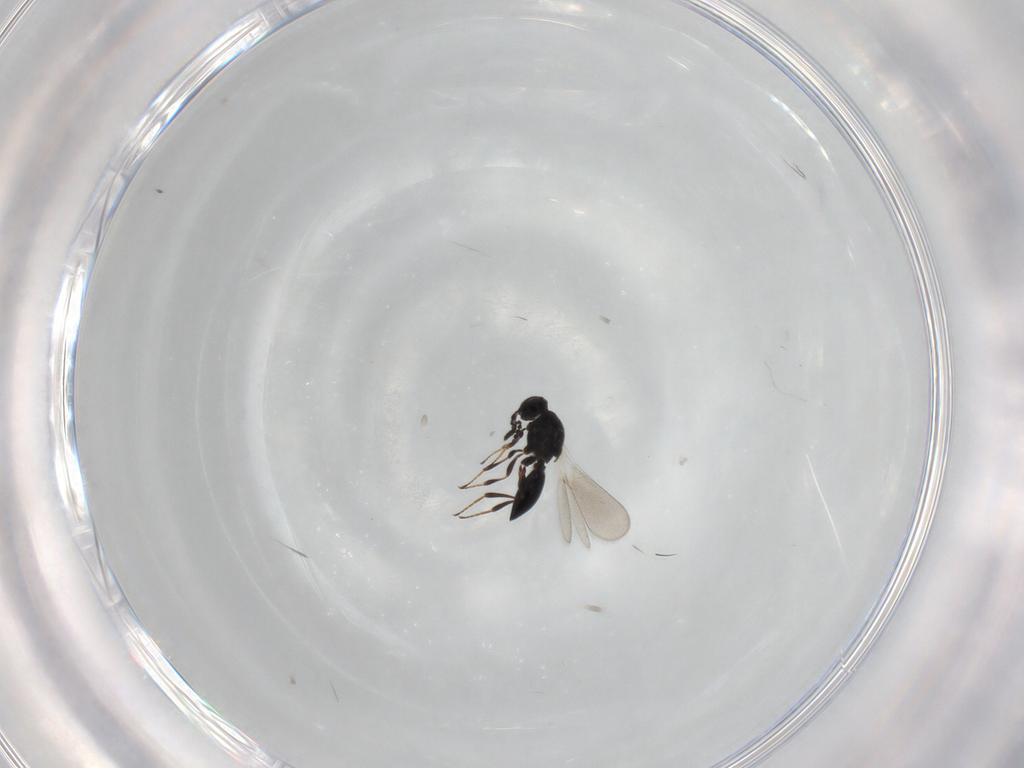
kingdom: Animalia
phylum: Arthropoda
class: Insecta
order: Hymenoptera
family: Platygastridae
